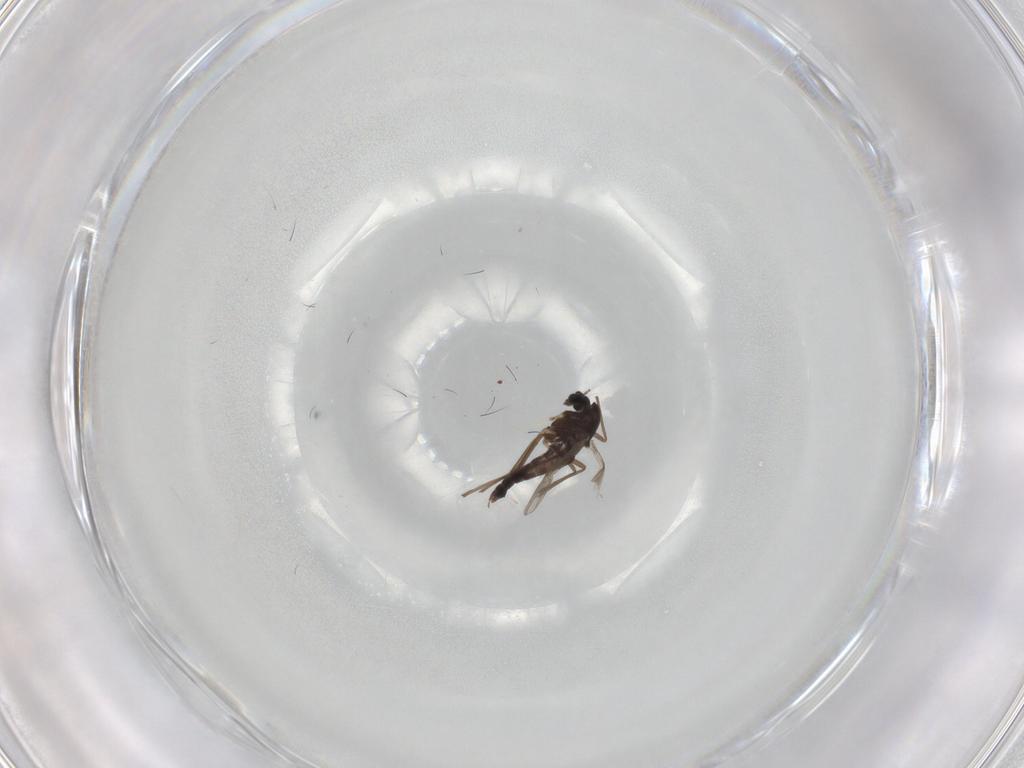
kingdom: Animalia
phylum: Arthropoda
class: Insecta
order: Diptera
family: Chironomidae
